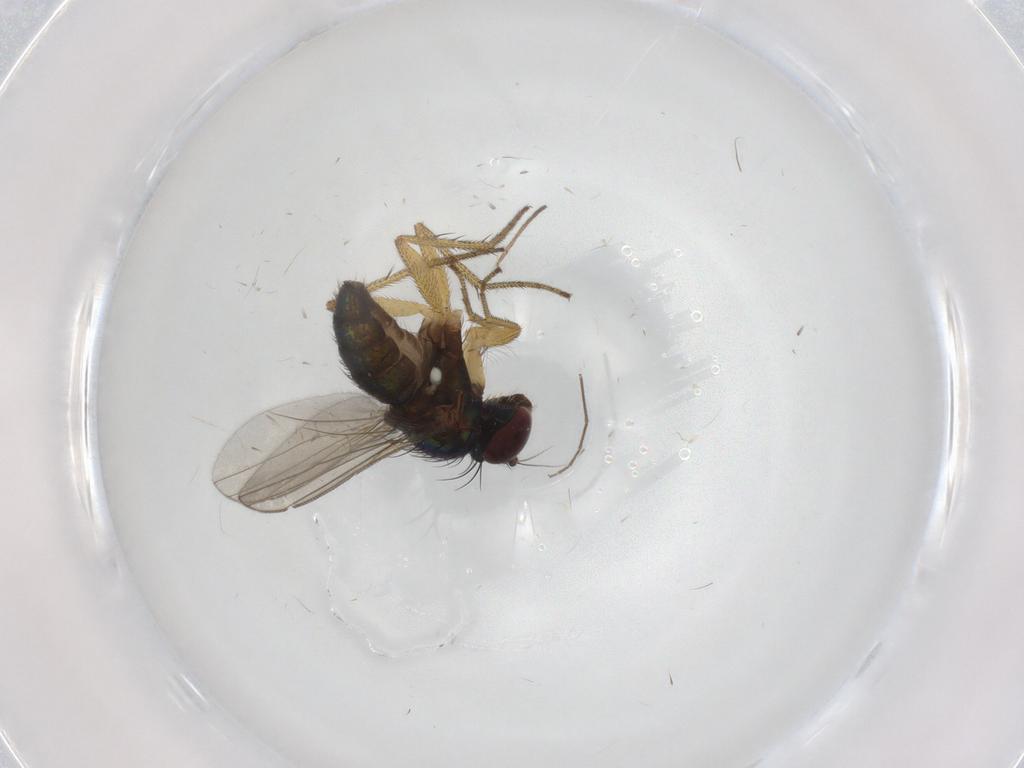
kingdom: Animalia
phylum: Arthropoda
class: Insecta
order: Diptera
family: Dolichopodidae
